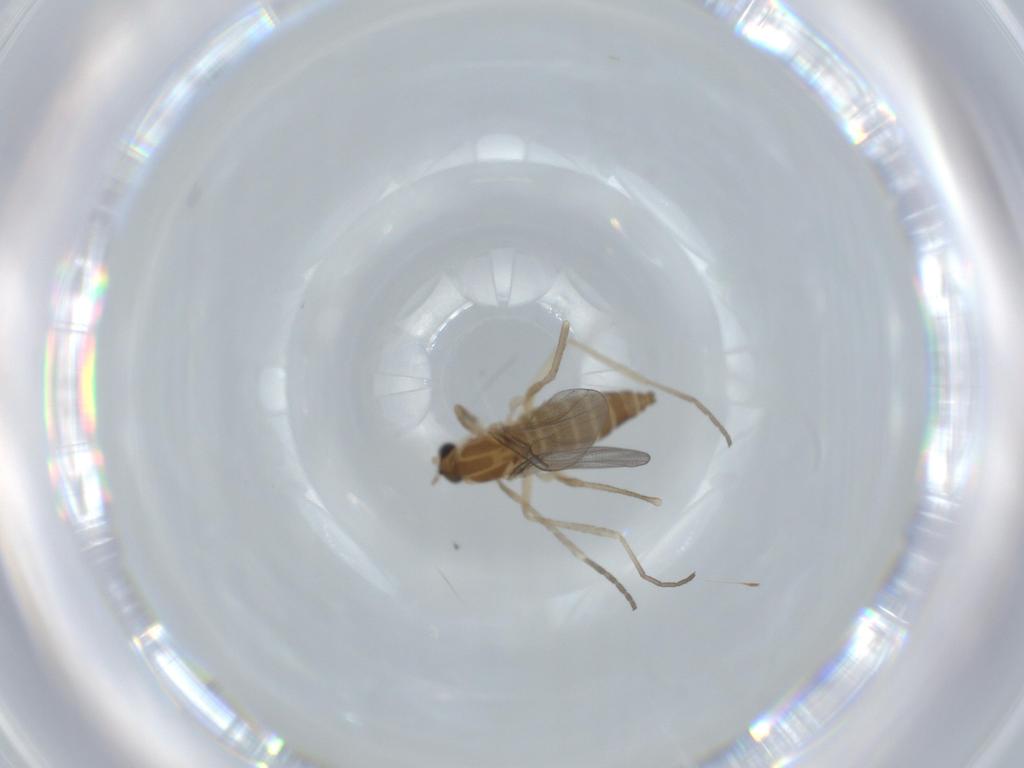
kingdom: Animalia
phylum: Arthropoda
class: Insecta
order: Diptera
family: Cecidomyiidae
